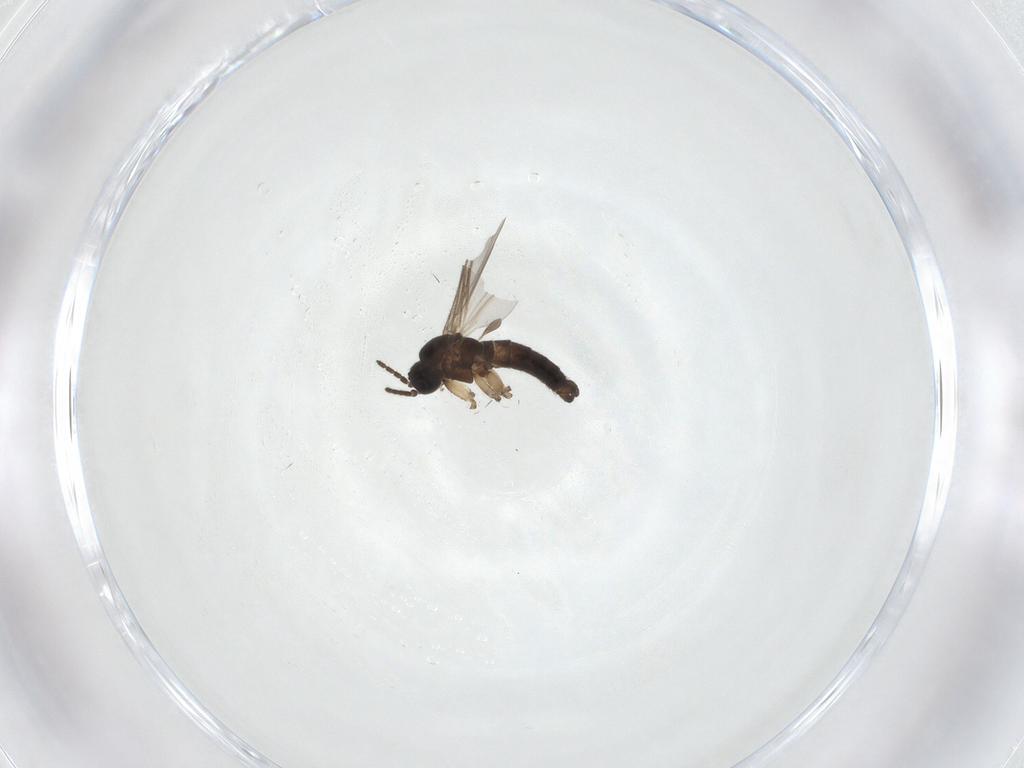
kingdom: Animalia
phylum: Arthropoda
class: Insecta
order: Diptera
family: Sciaridae
